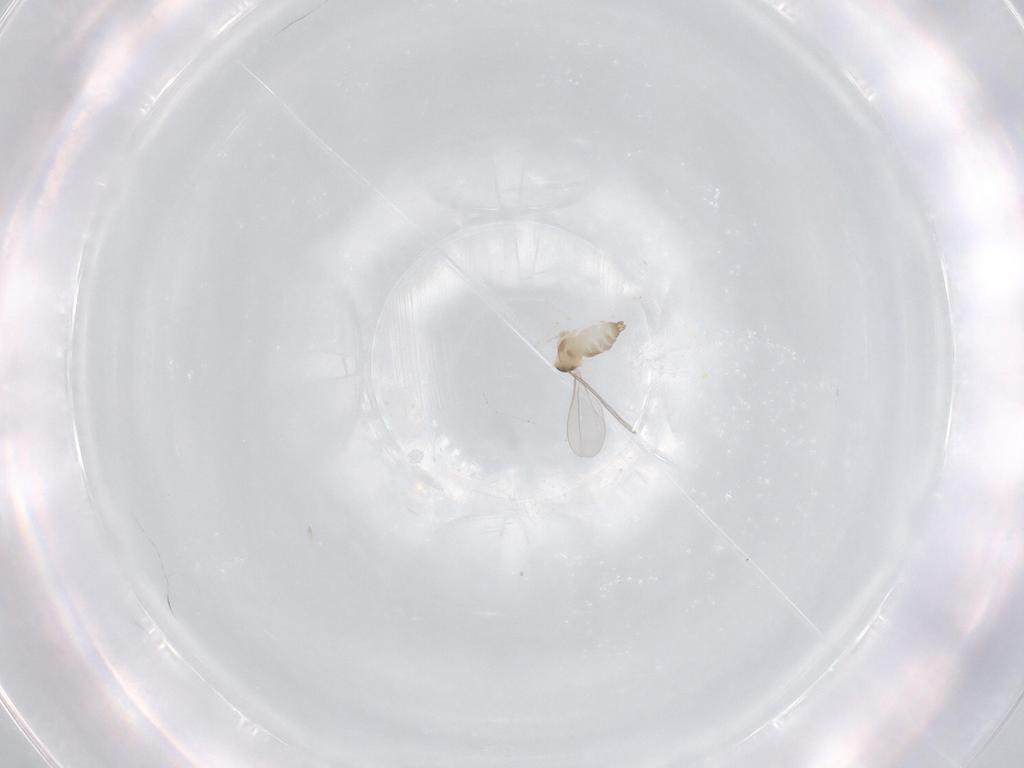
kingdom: Animalia
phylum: Arthropoda
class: Insecta
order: Diptera
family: Cecidomyiidae
